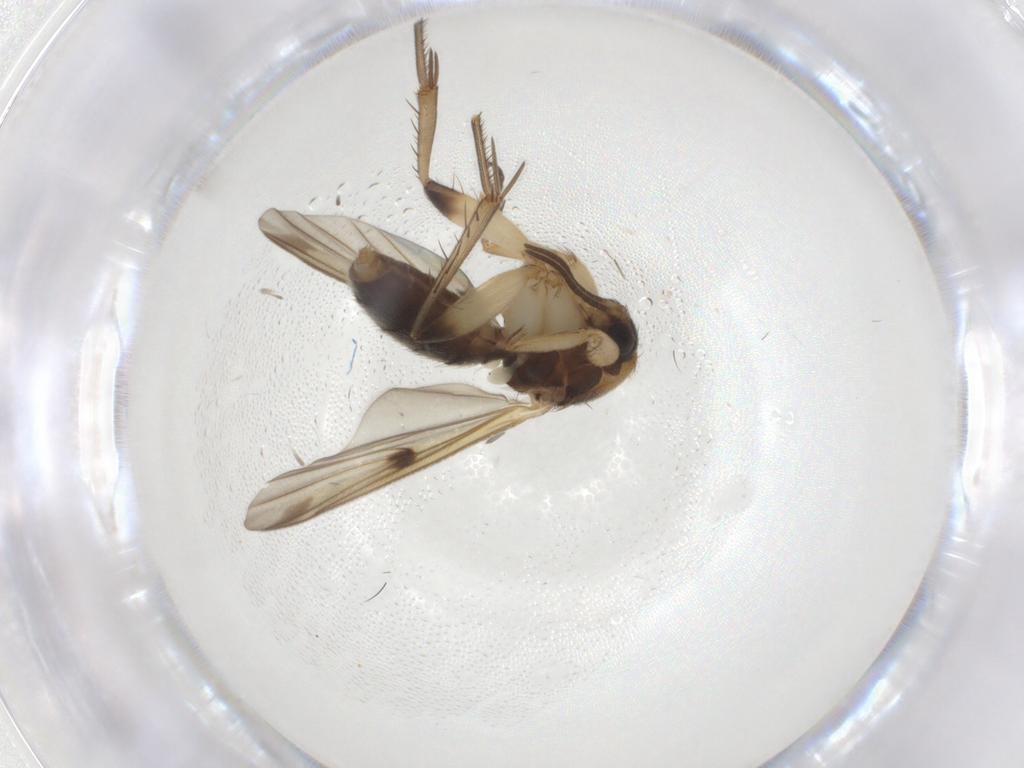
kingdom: Animalia
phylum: Arthropoda
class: Insecta
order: Diptera
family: Mycetophilidae
